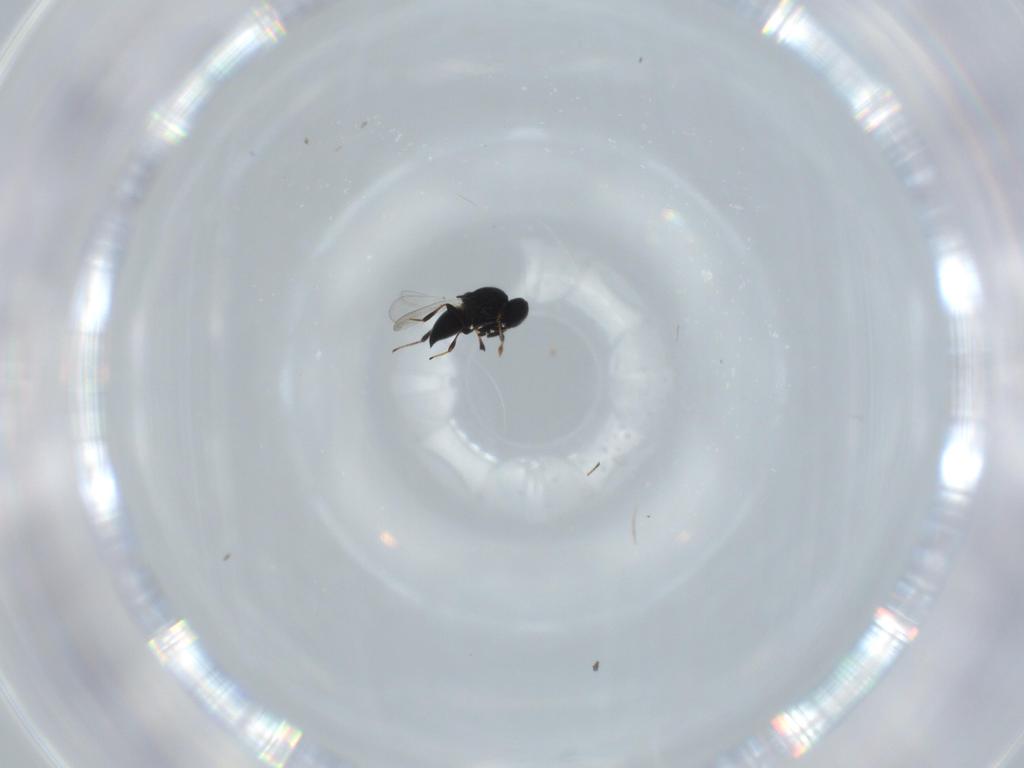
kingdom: Animalia
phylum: Arthropoda
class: Insecta
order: Hymenoptera
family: Platygastridae
